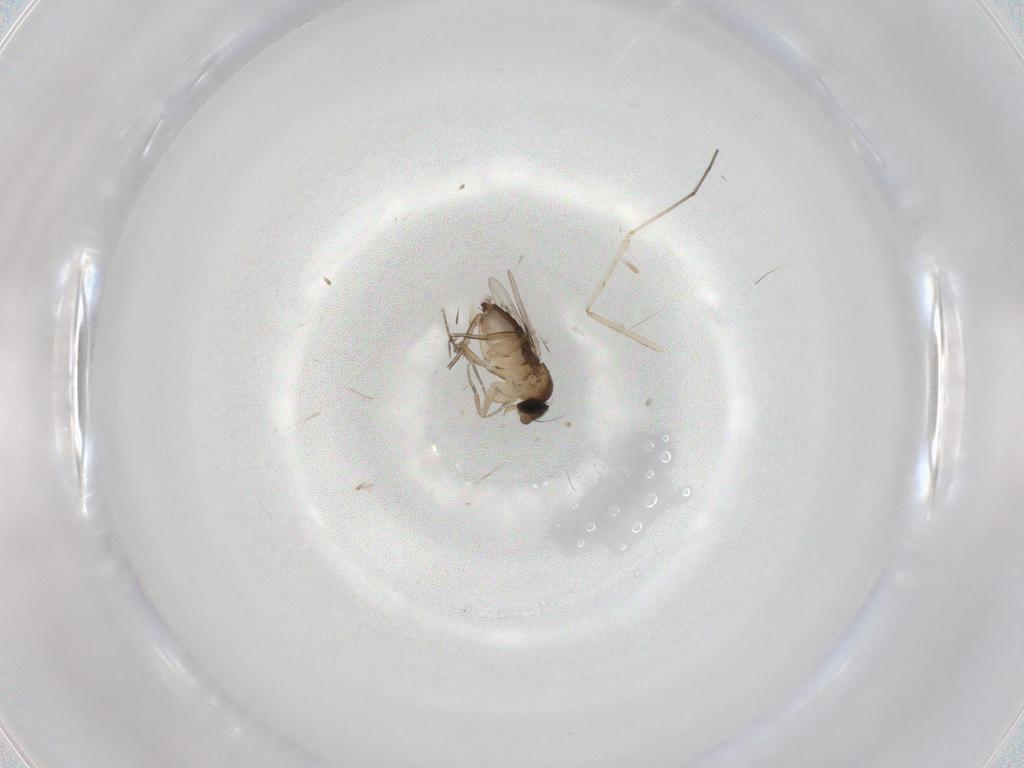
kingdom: Animalia
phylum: Arthropoda
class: Insecta
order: Diptera
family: Phoridae
